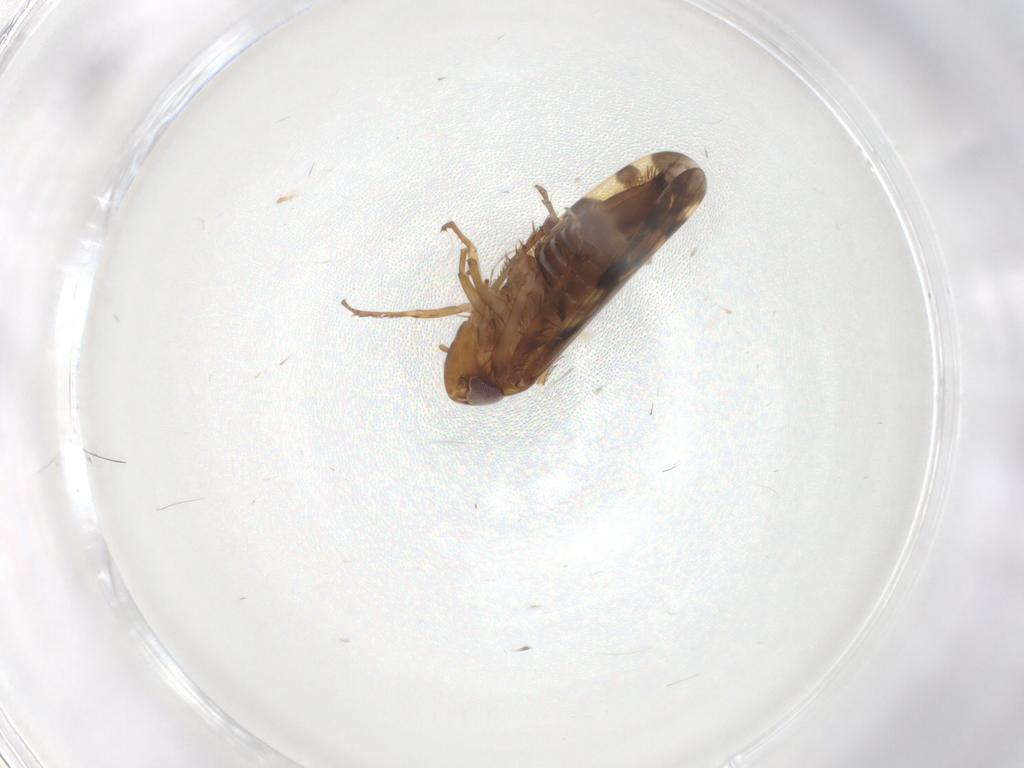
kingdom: Animalia
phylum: Arthropoda
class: Insecta
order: Hemiptera
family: Cicadellidae
